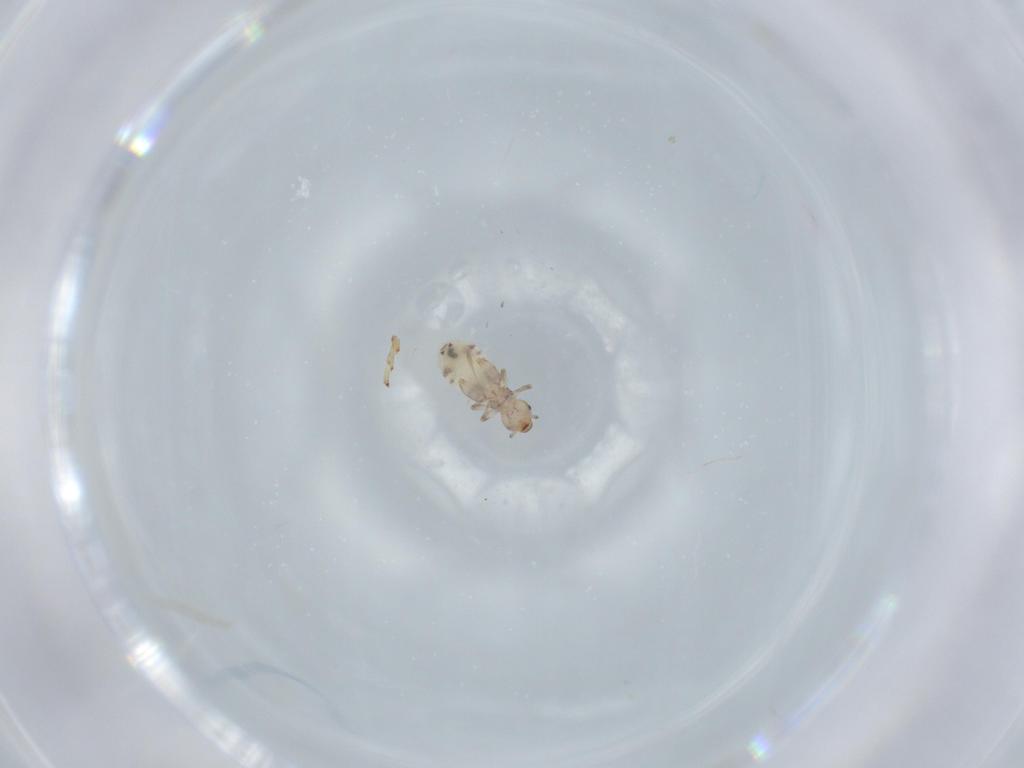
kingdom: Animalia
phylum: Arthropoda
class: Insecta
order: Psocodea
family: Liposcelididae
